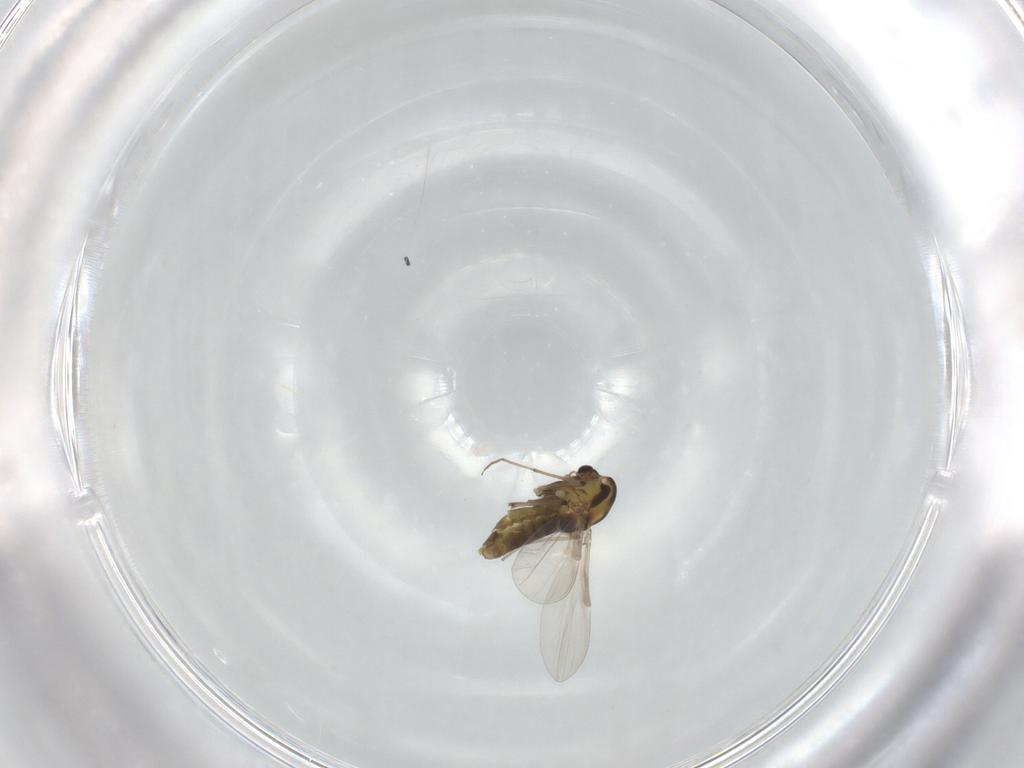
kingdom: Animalia
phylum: Arthropoda
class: Insecta
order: Diptera
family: Chironomidae
